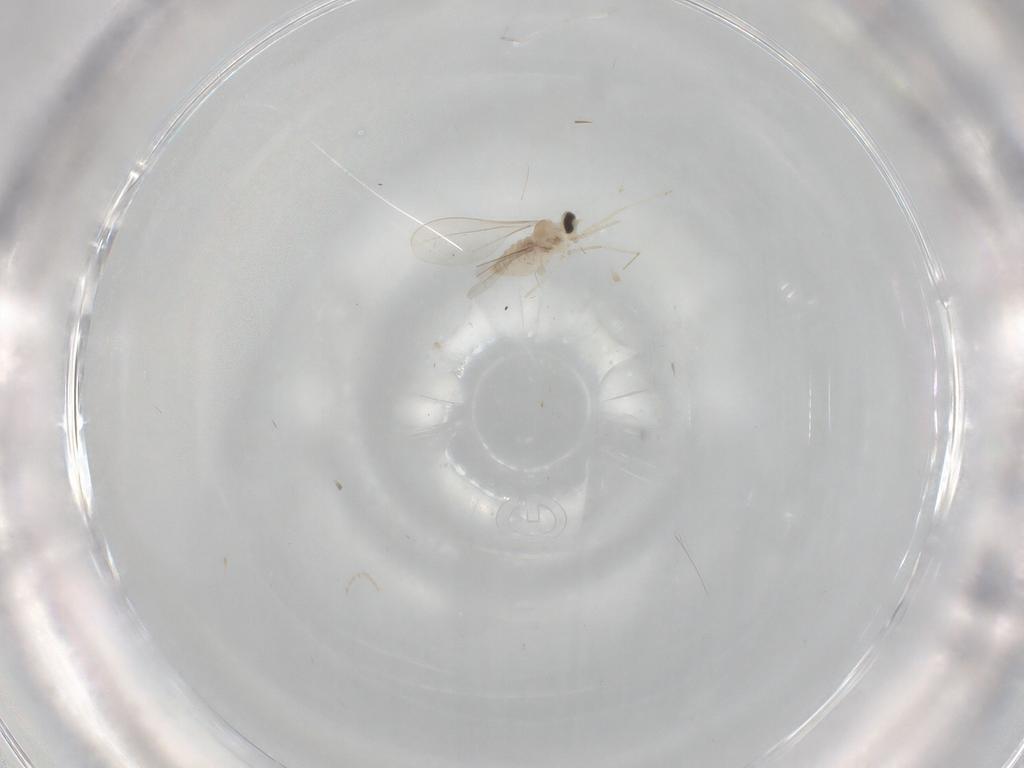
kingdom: Animalia
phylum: Arthropoda
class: Insecta
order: Diptera
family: Cecidomyiidae
